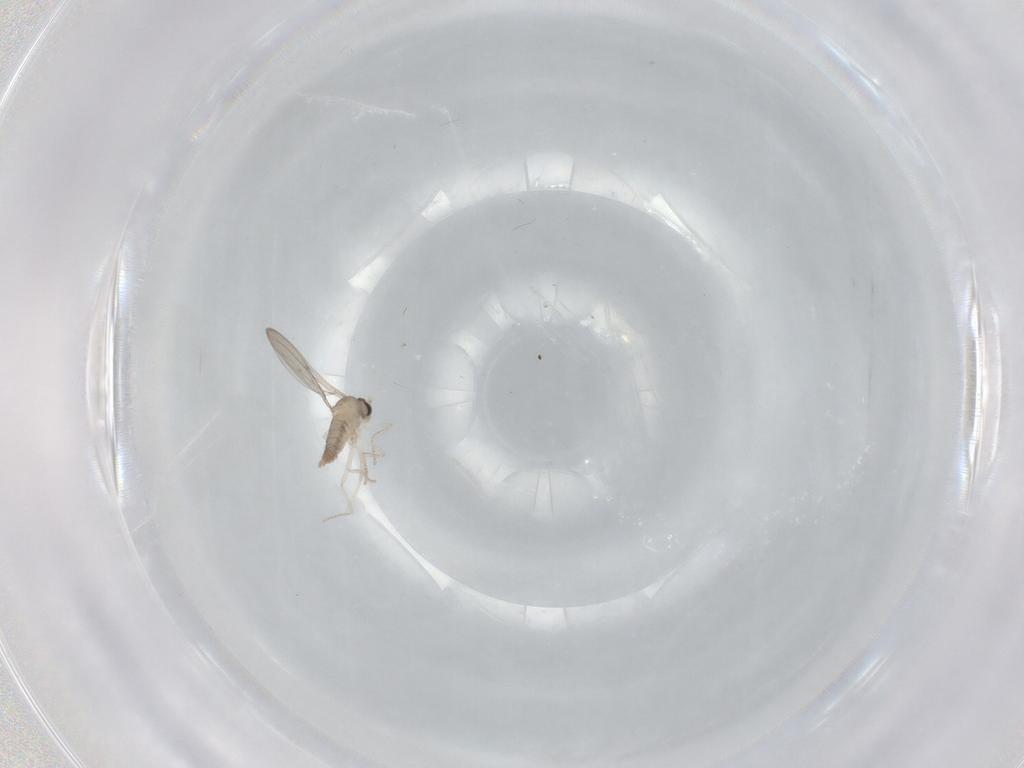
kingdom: Animalia
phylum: Arthropoda
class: Insecta
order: Diptera
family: Cecidomyiidae
